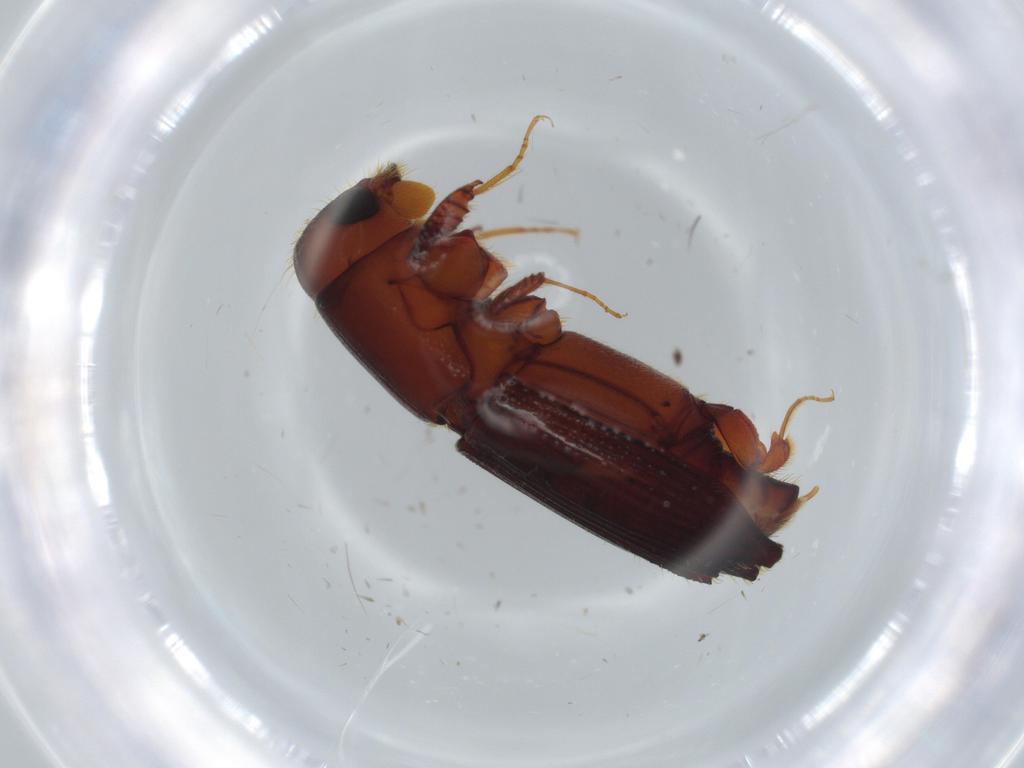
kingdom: Animalia
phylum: Arthropoda
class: Insecta
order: Coleoptera
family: Curculionidae
